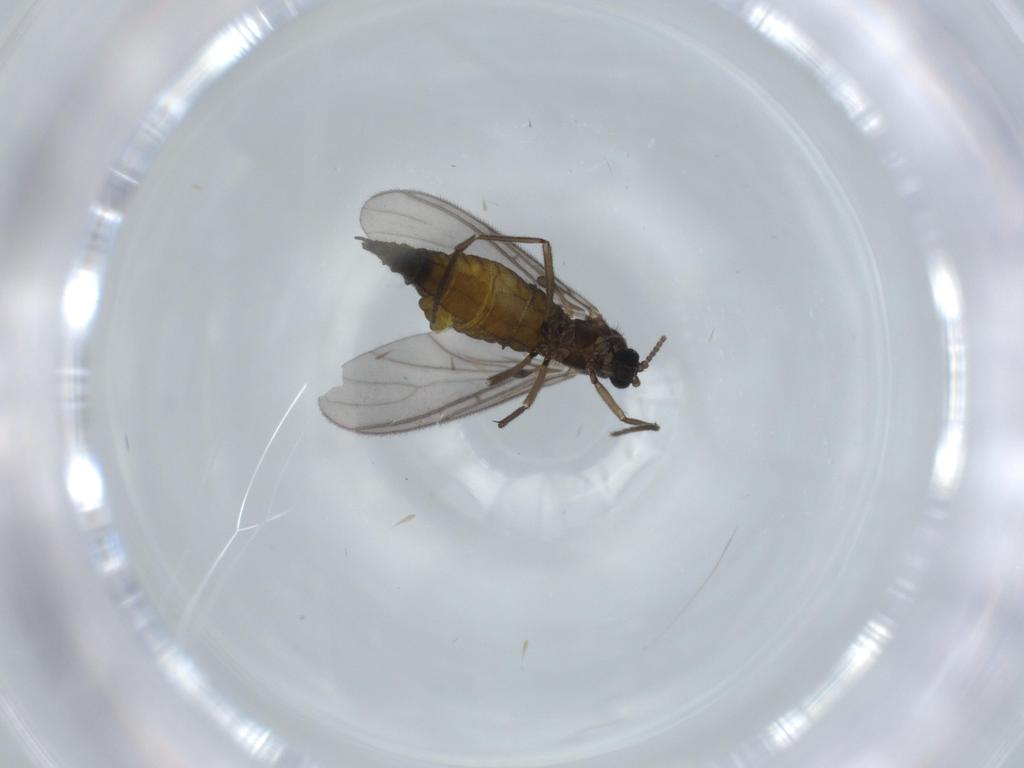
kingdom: Animalia
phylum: Arthropoda
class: Insecta
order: Diptera
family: Sciaridae
